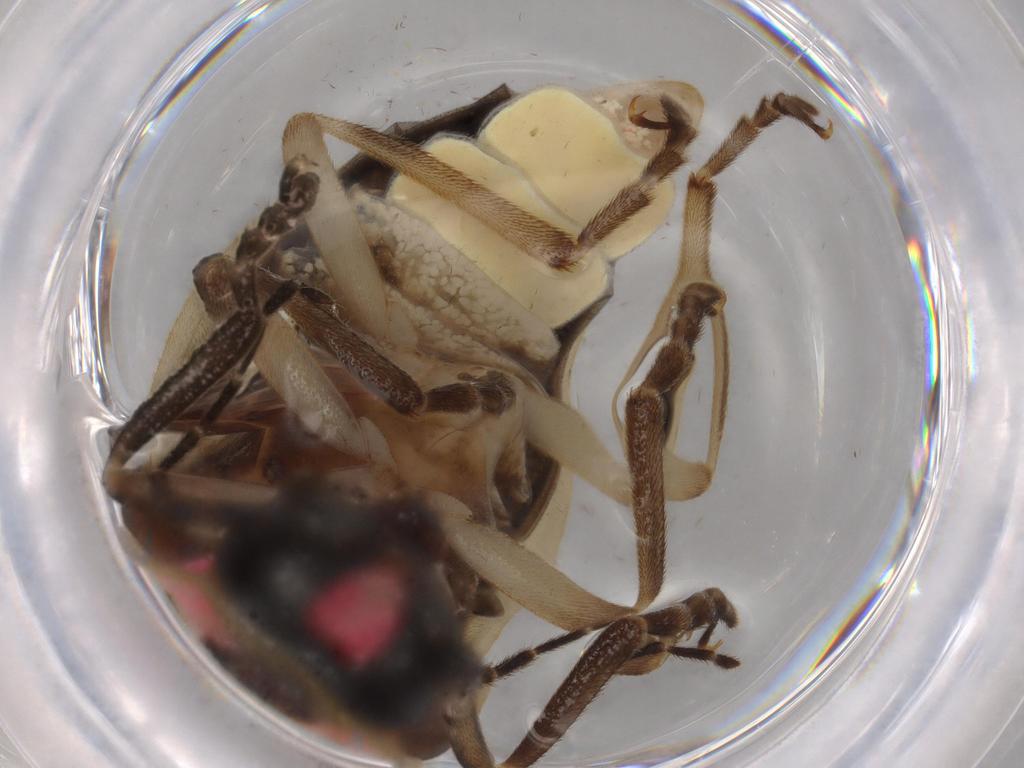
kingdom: Animalia
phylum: Arthropoda
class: Insecta
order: Coleoptera
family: Lampyridae
